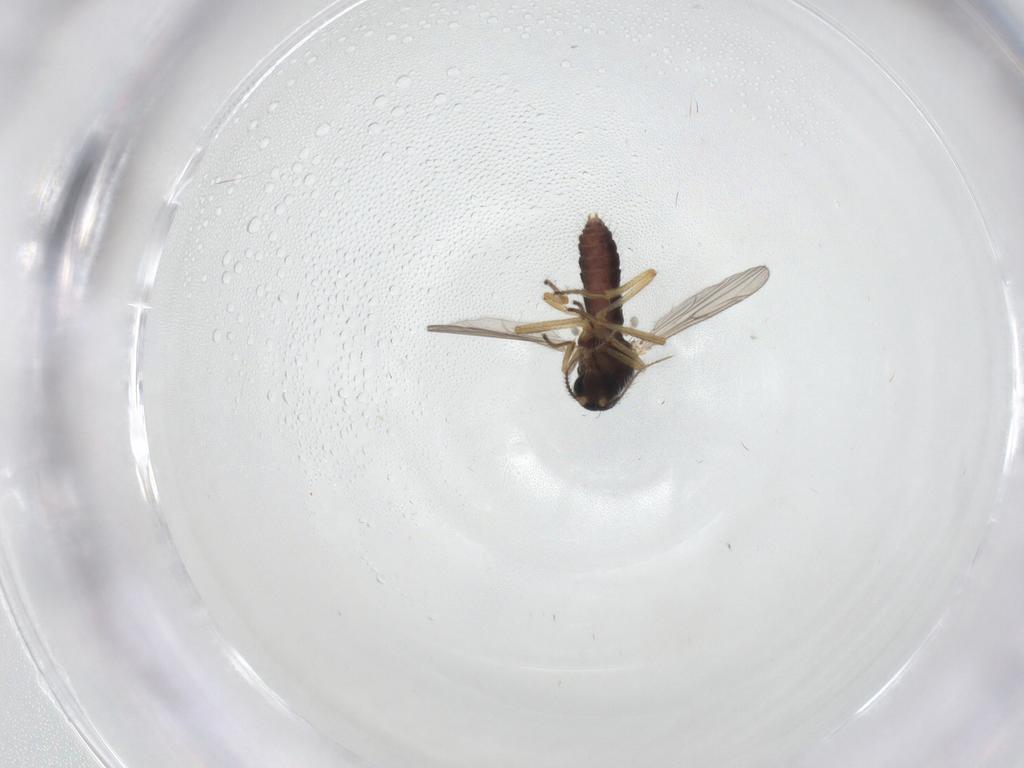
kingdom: Animalia
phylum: Arthropoda
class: Insecta
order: Diptera
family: Ceratopogonidae
